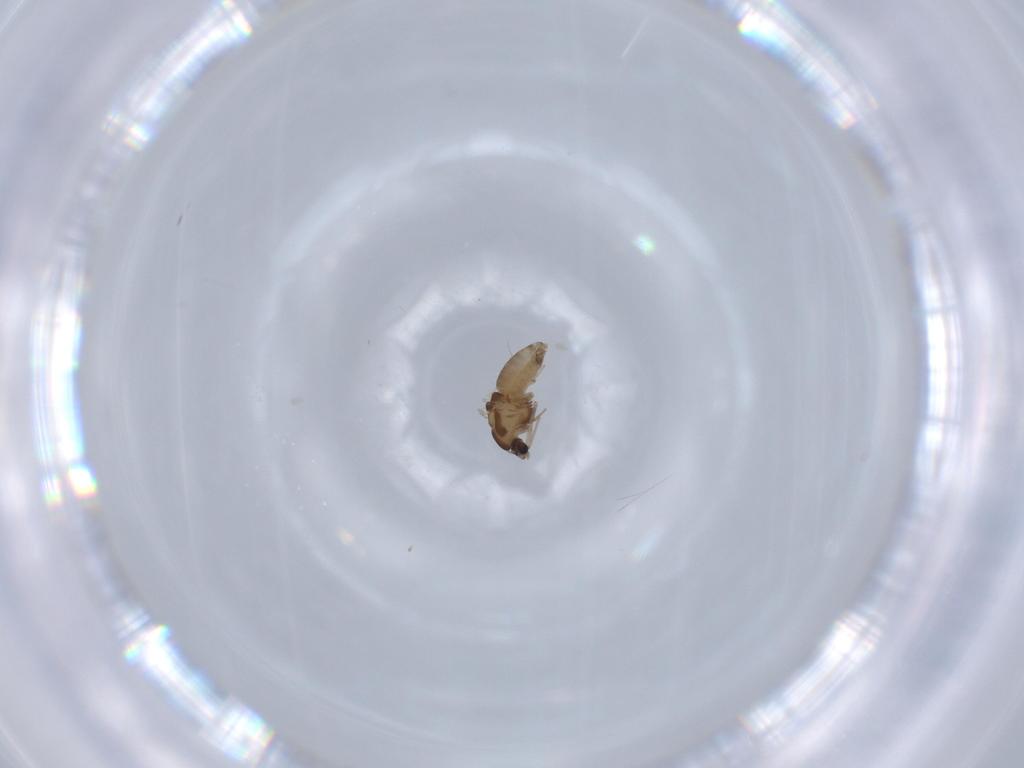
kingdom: Animalia
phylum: Arthropoda
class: Insecta
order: Diptera
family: Chironomidae
